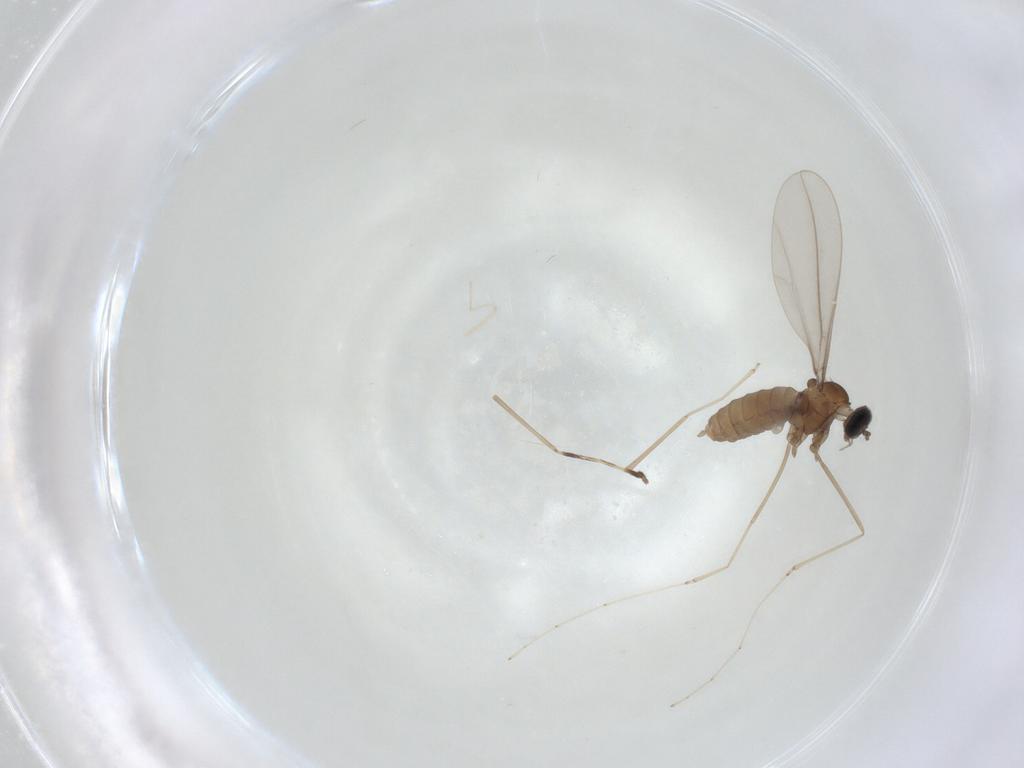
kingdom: Animalia
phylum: Arthropoda
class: Insecta
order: Diptera
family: Cecidomyiidae
